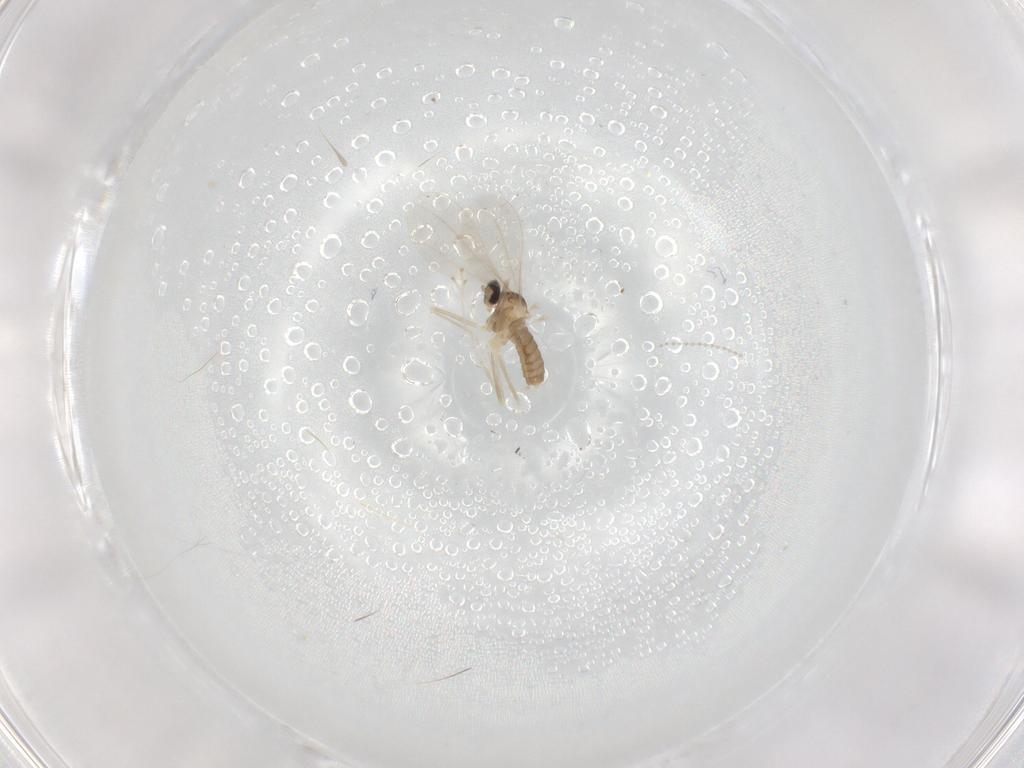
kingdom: Animalia
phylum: Arthropoda
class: Insecta
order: Diptera
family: Cecidomyiidae
